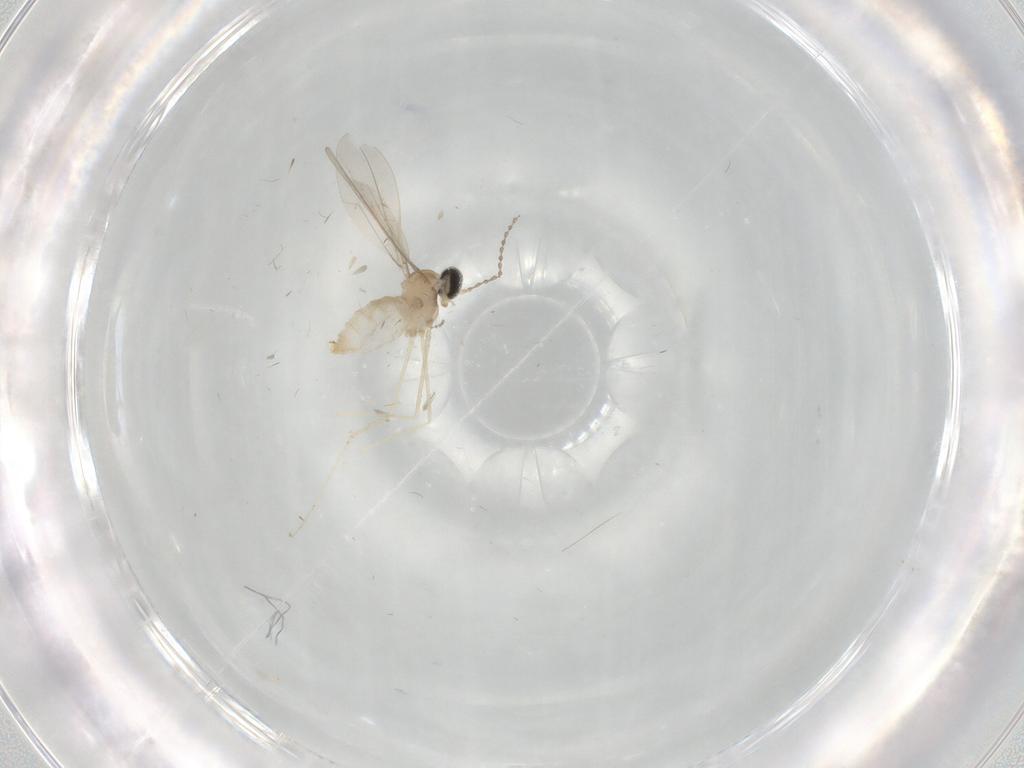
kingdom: Animalia
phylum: Arthropoda
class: Insecta
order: Diptera
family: Cecidomyiidae
